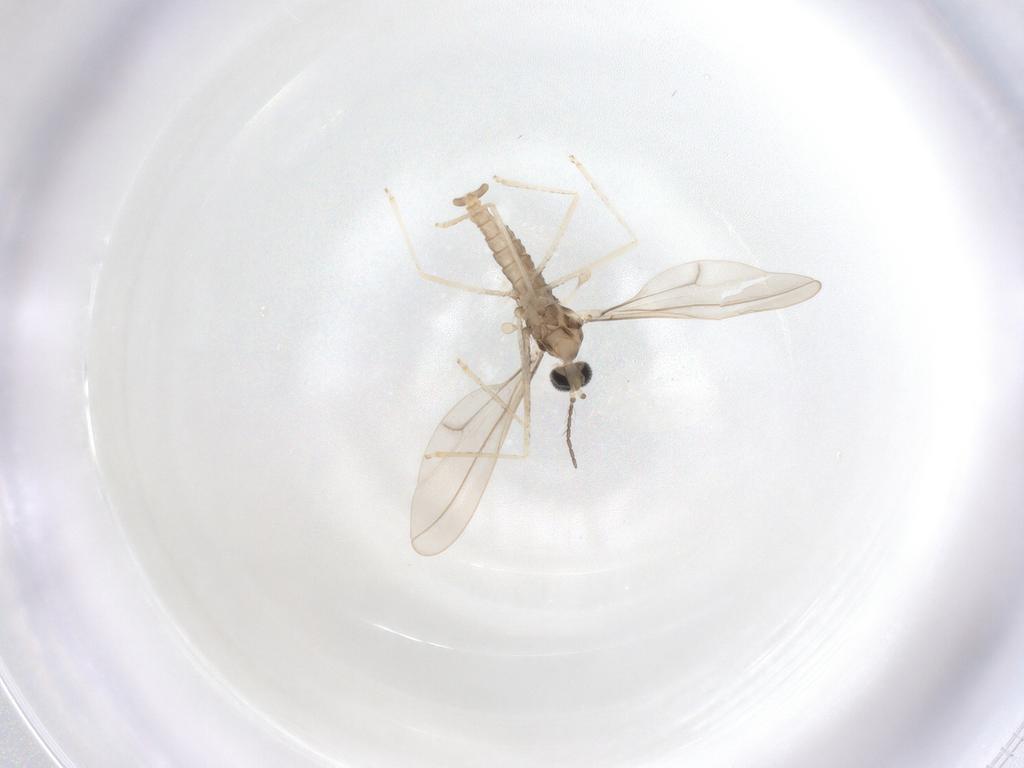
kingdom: Animalia
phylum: Arthropoda
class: Insecta
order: Diptera
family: Cecidomyiidae
